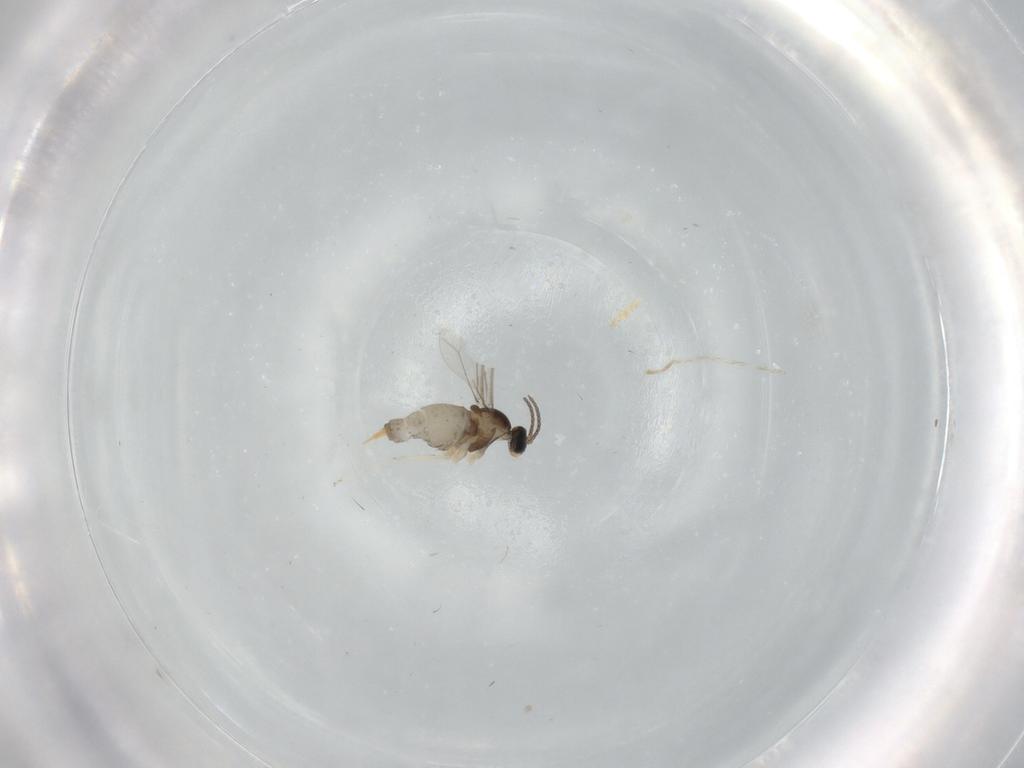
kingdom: Animalia
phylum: Arthropoda
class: Insecta
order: Diptera
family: Cecidomyiidae
